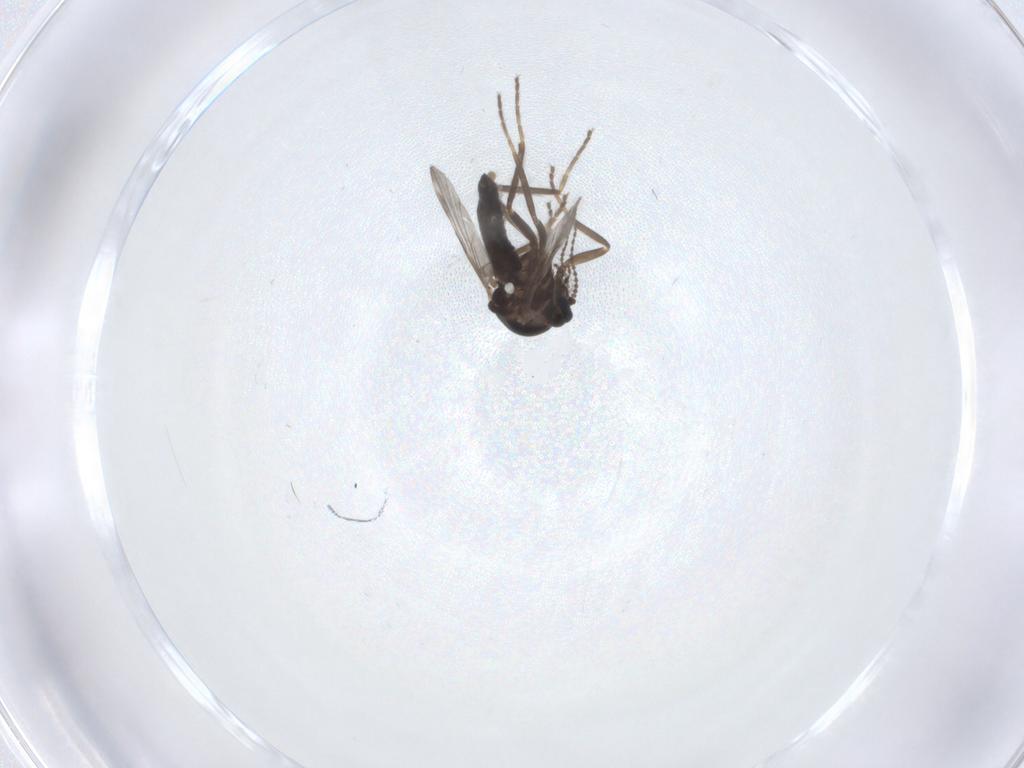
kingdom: Animalia
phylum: Arthropoda
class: Insecta
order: Diptera
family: Ceratopogonidae
